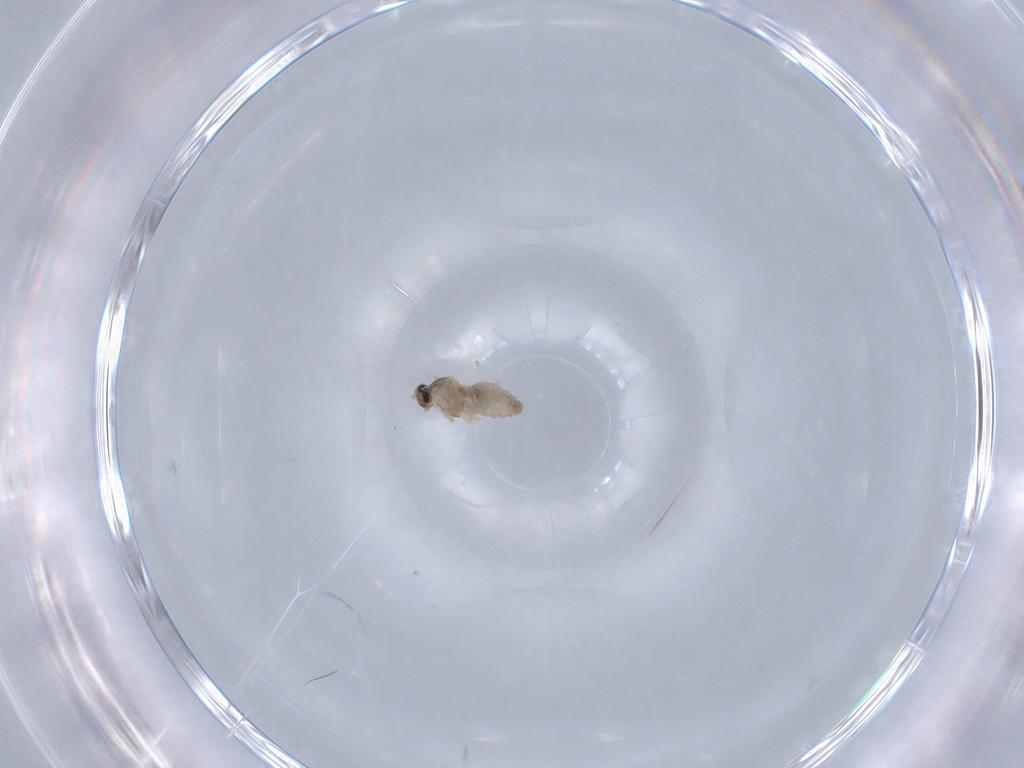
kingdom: Animalia
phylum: Arthropoda
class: Insecta
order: Diptera
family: Cecidomyiidae
